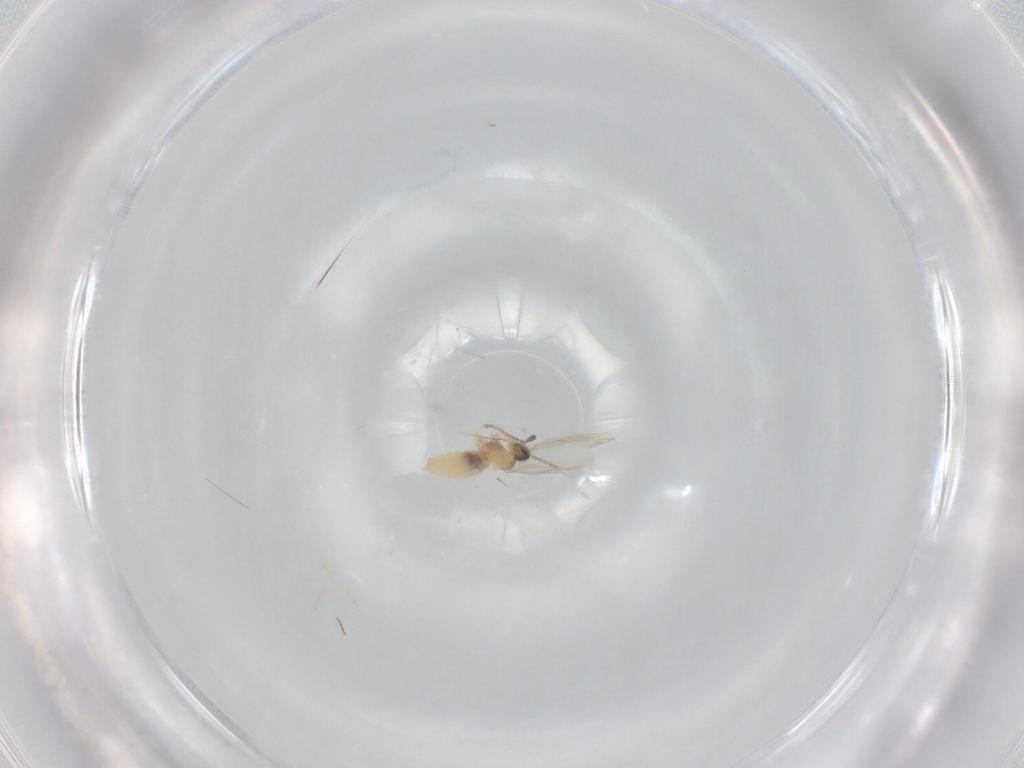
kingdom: Animalia
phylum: Arthropoda
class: Insecta
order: Diptera
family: Cecidomyiidae
